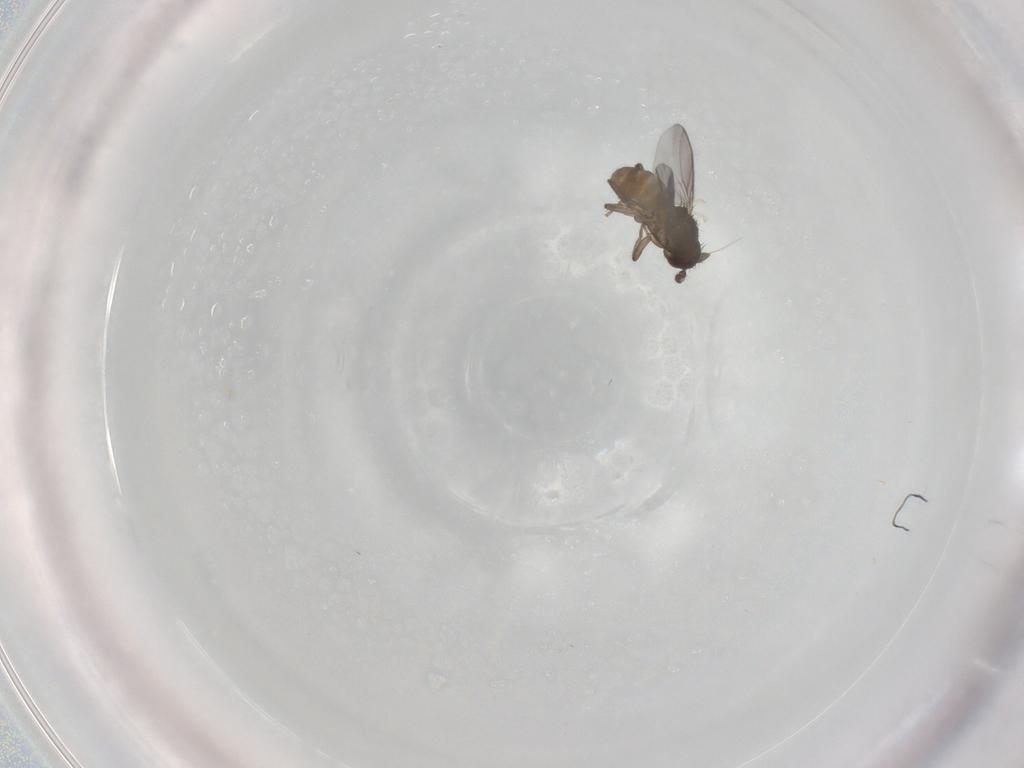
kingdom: Animalia
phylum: Arthropoda
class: Insecta
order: Diptera
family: Sphaeroceridae
